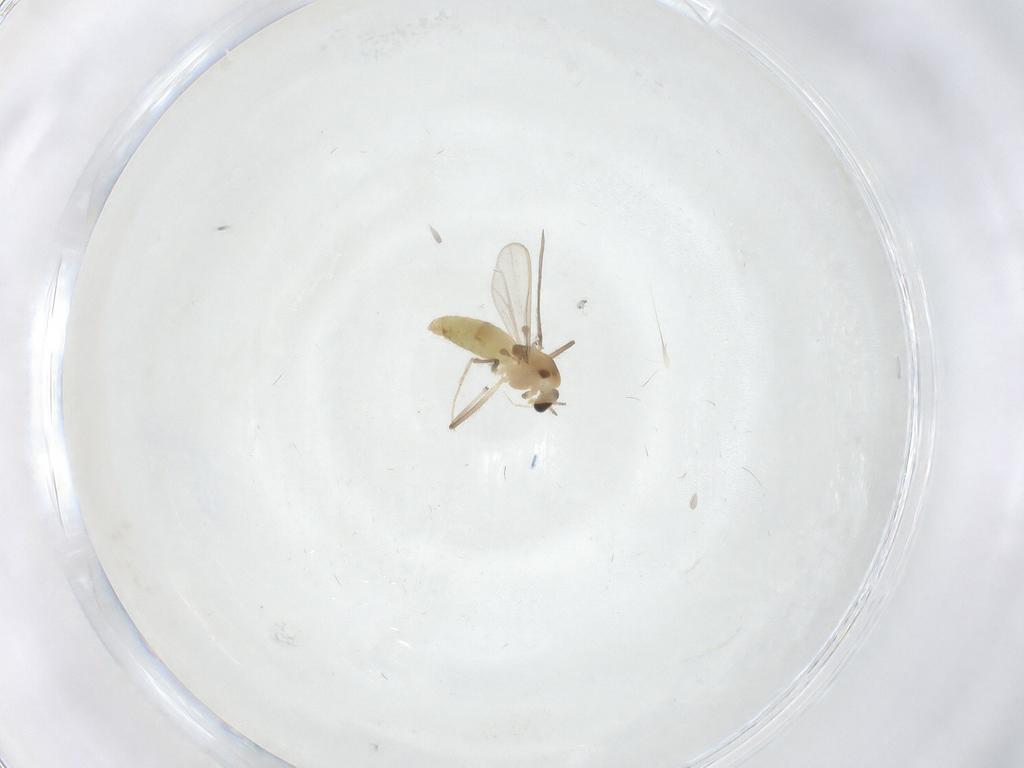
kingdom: Animalia
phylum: Arthropoda
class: Insecta
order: Diptera
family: Chironomidae
